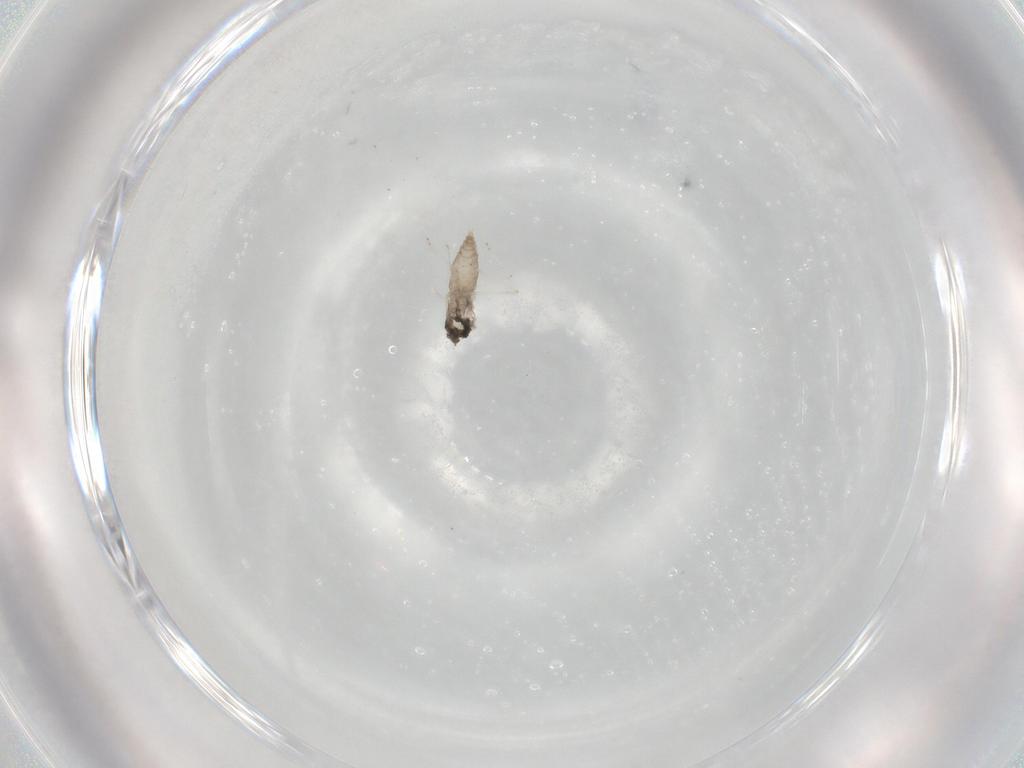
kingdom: Animalia
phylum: Arthropoda
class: Insecta
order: Diptera
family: Cecidomyiidae
